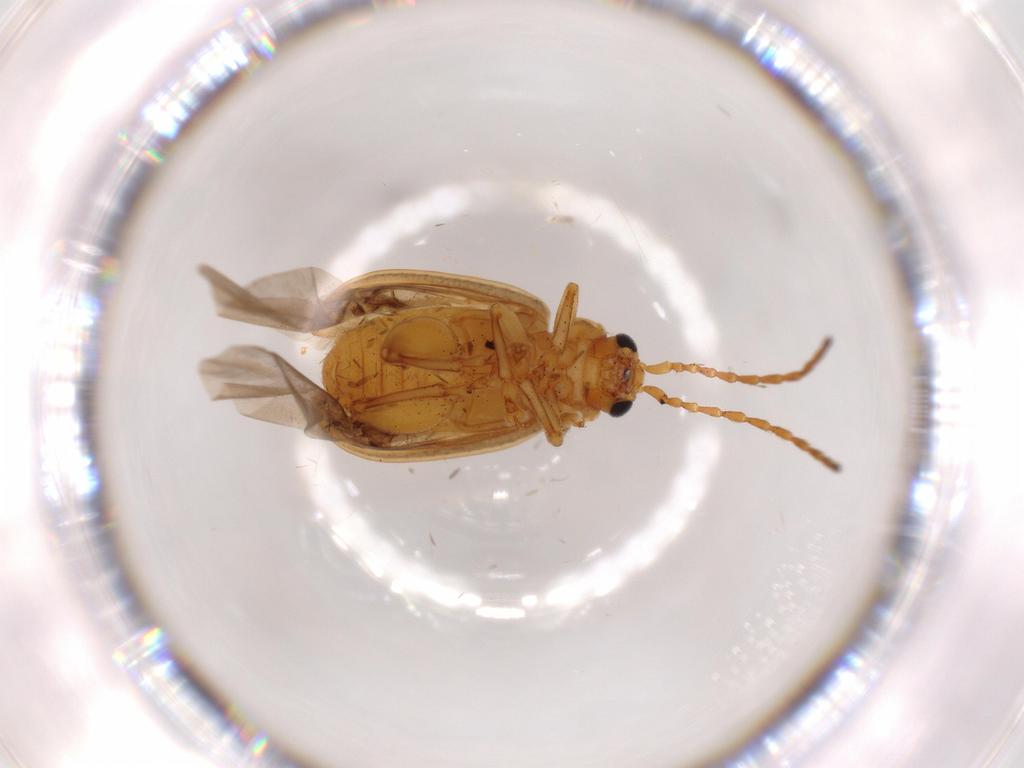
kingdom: Animalia
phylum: Arthropoda
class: Insecta
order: Coleoptera
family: Chrysomelidae
